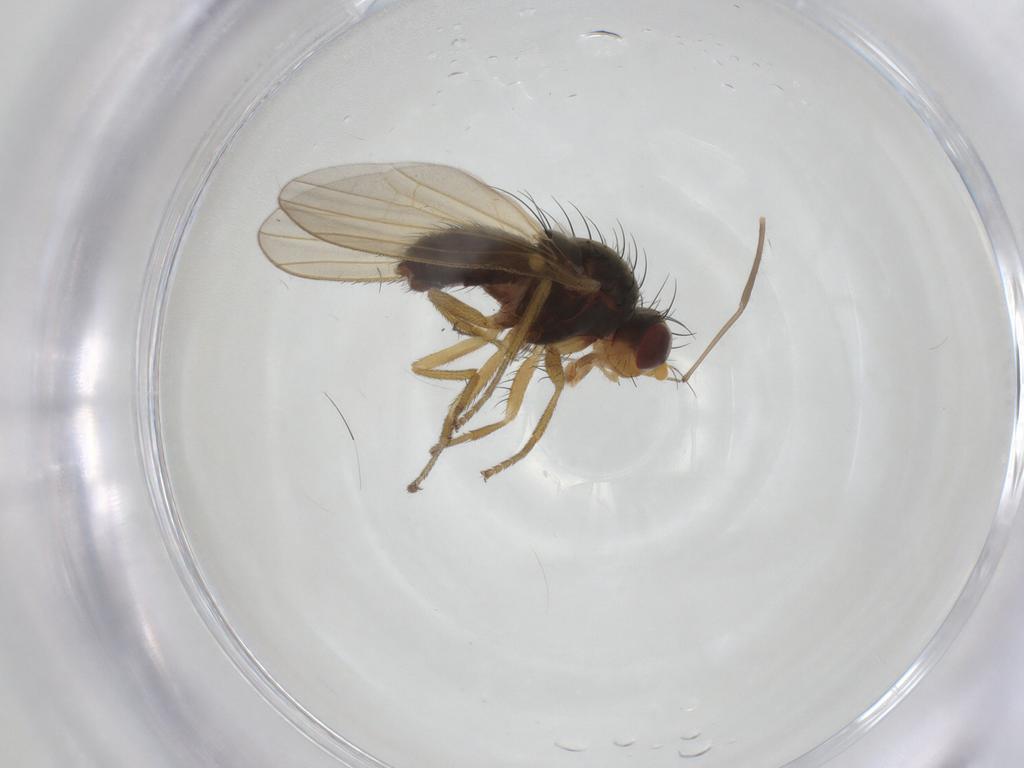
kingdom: Animalia
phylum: Arthropoda
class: Insecta
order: Diptera
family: Heleomyzidae
